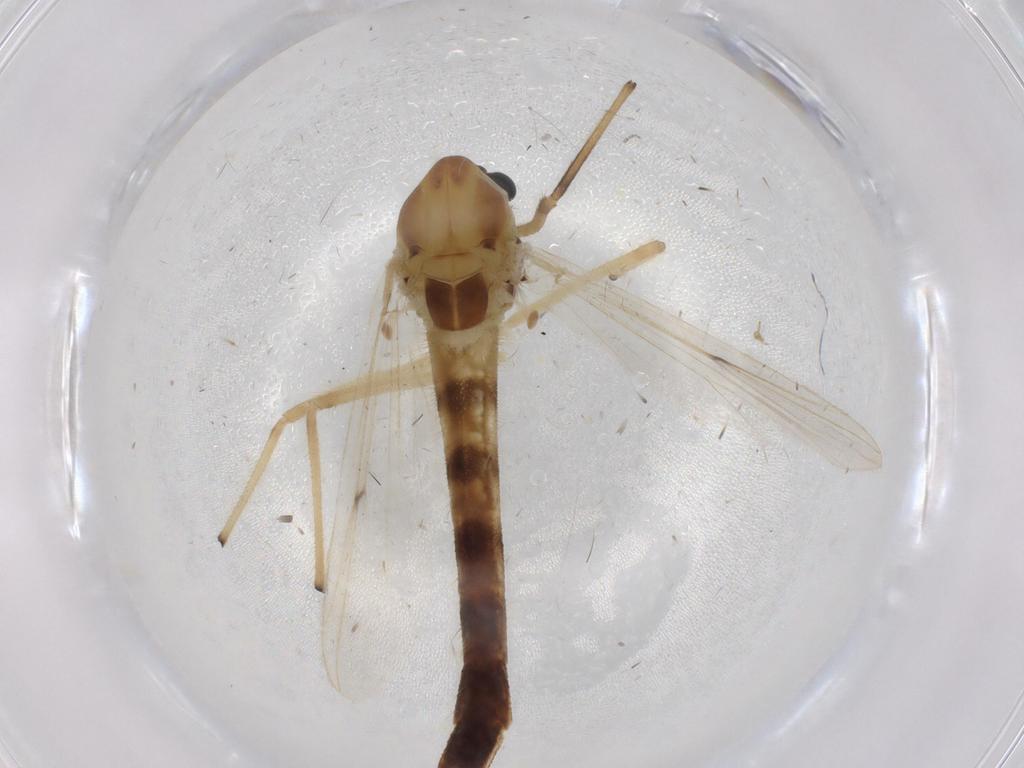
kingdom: Animalia
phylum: Arthropoda
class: Insecta
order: Diptera
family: Chironomidae
